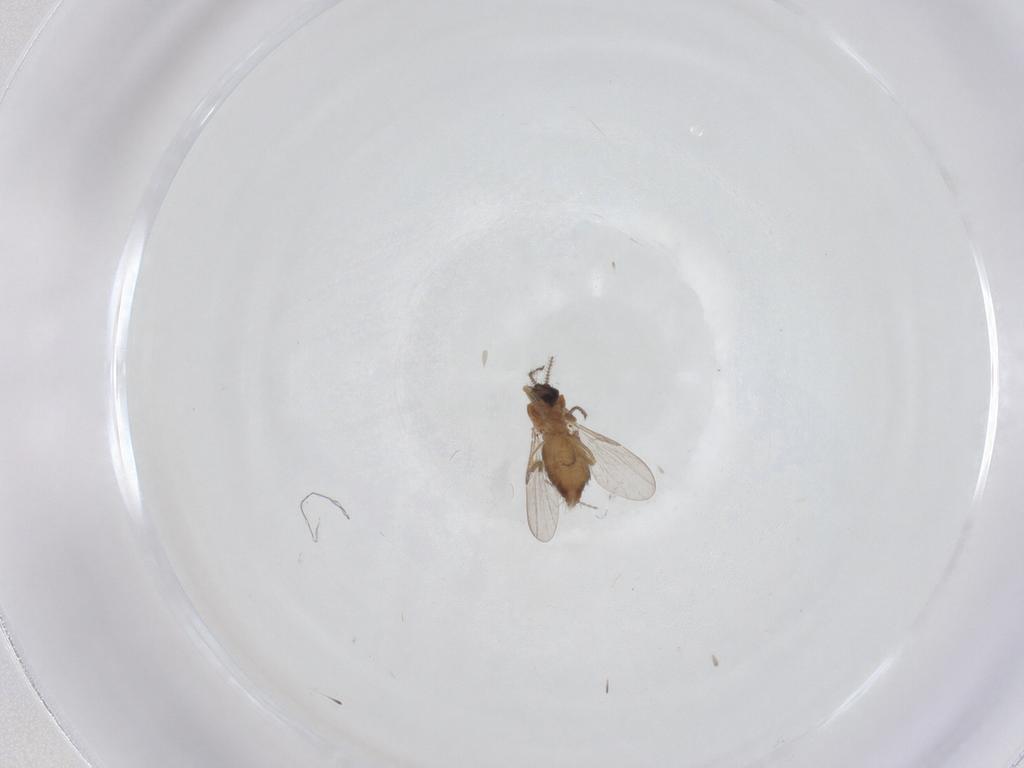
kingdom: Animalia
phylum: Arthropoda
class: Insecta
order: Diptera
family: Ceratopogonidae
